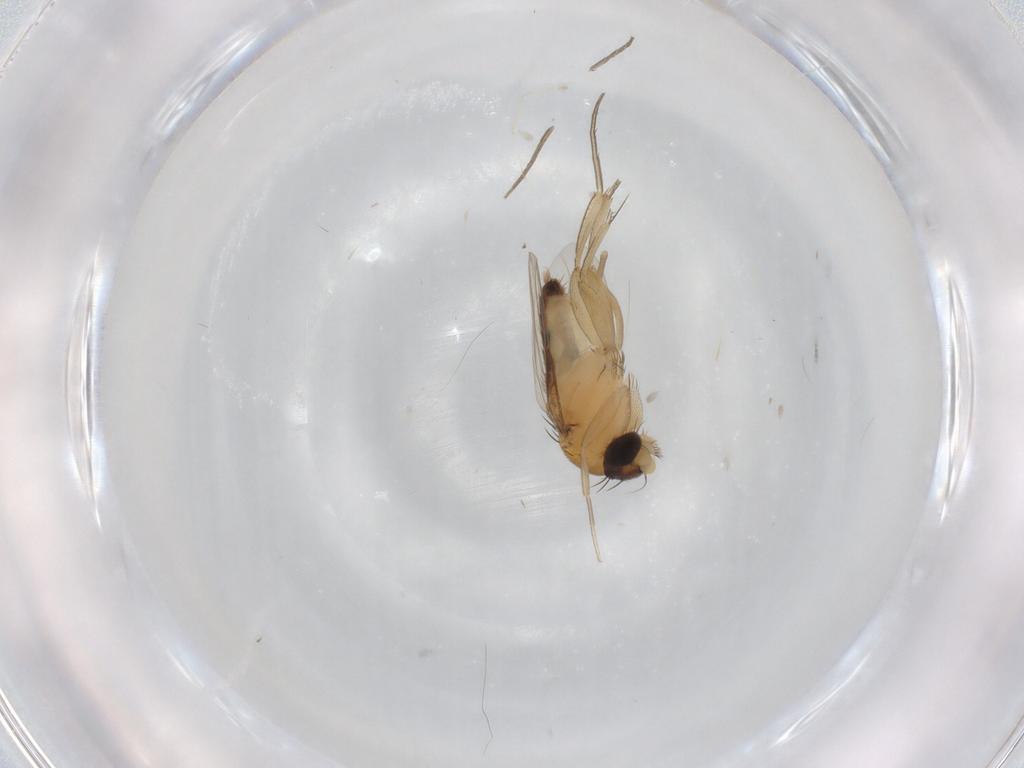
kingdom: Animalia
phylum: Arthropoda
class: Insecta
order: Diptera
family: Phoridae
